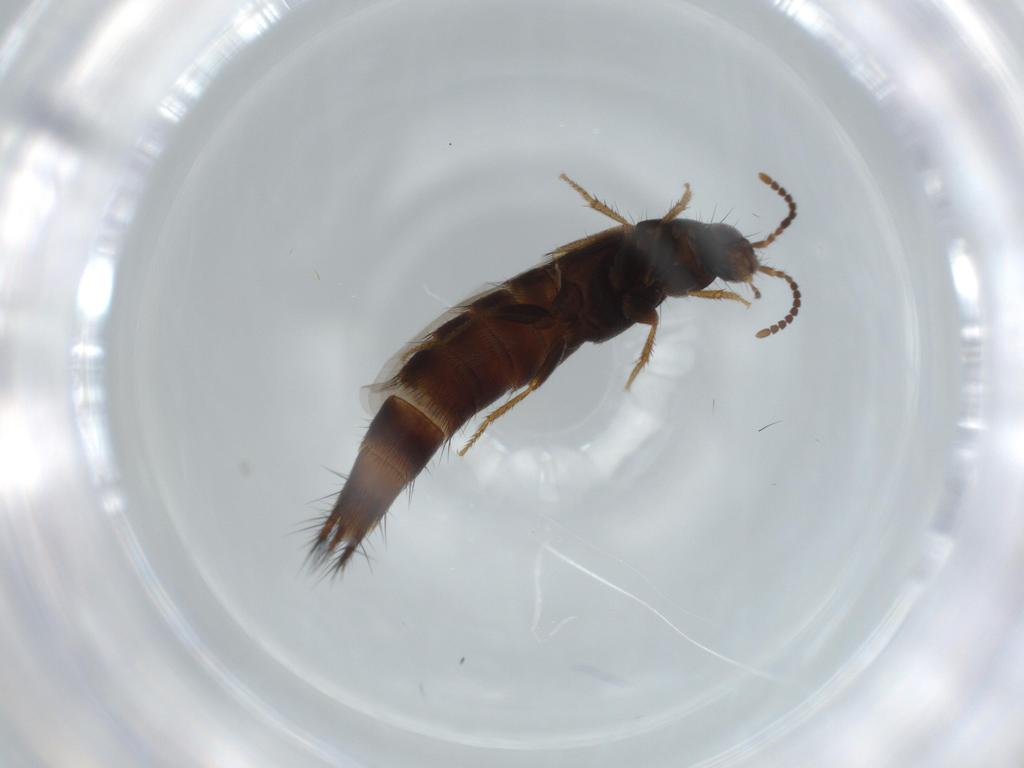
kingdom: Animalia
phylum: Arthropoda
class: Insecta
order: Coleoptera
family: Staphylinidae
